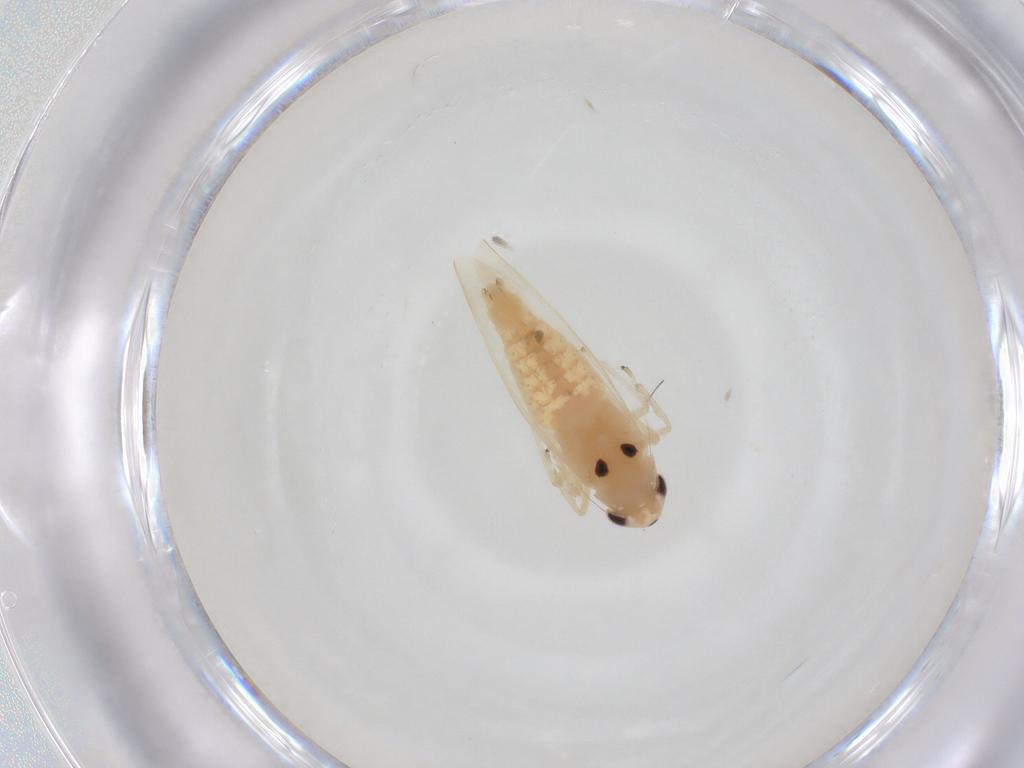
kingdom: Animalia
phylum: Arthropoda
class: Insecta
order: Hemiptera
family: Cicadellidae
